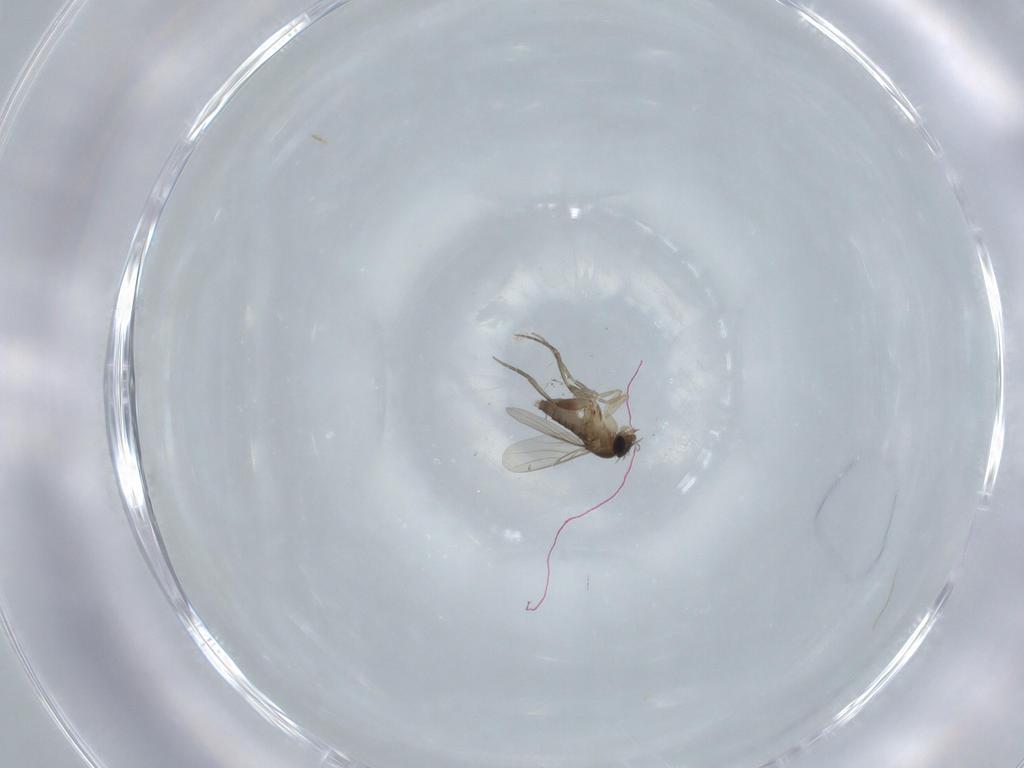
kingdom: Animalia
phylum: Arthropoda
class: Insecta
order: Diptera
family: Phoridae
